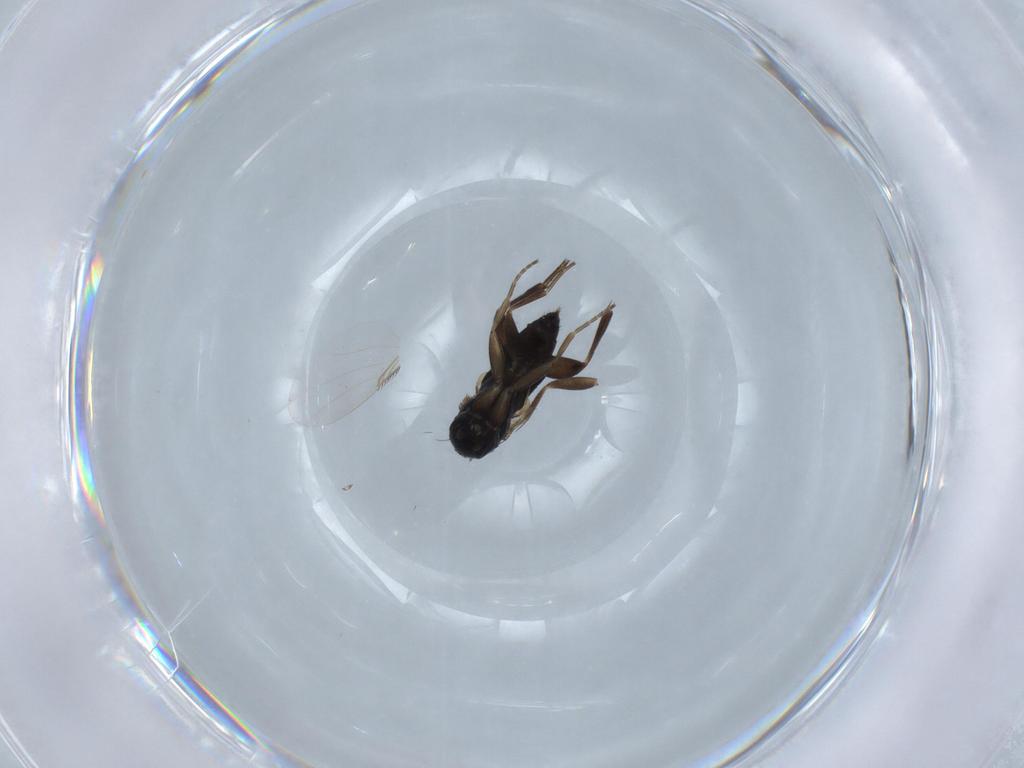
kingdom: Animalia
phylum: Arthropoda
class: Insecta
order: Diptera
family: Phoridae
